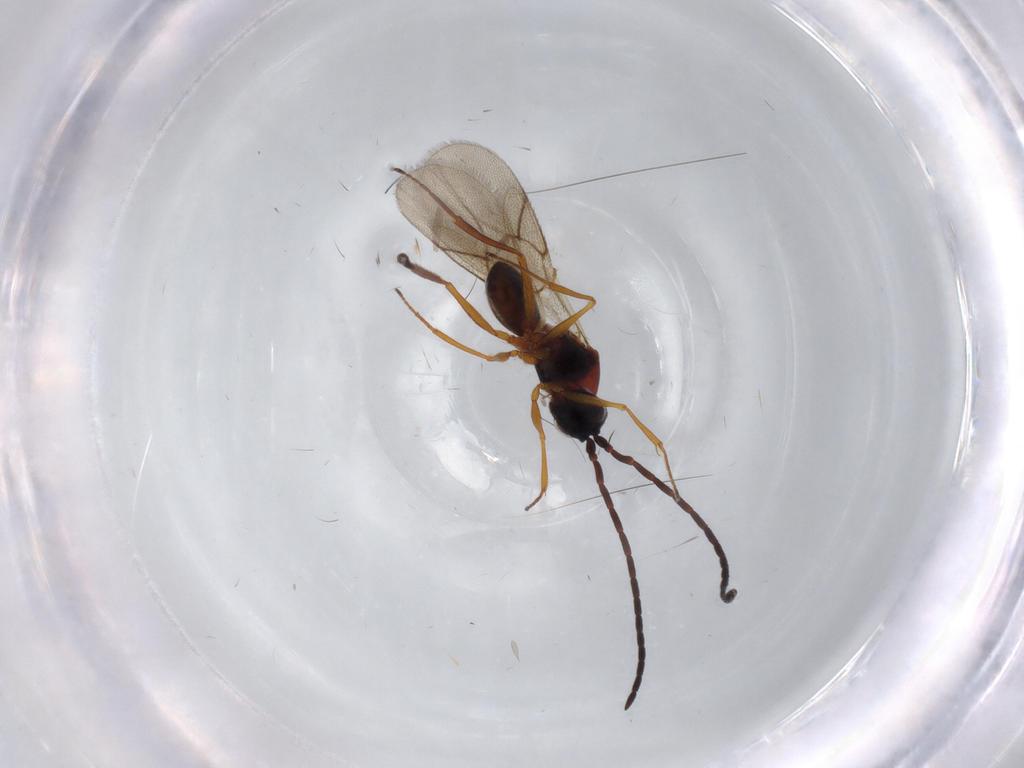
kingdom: Animalia
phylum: Arthropoda
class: Insecta
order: Hymenoptera
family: Figitidae
